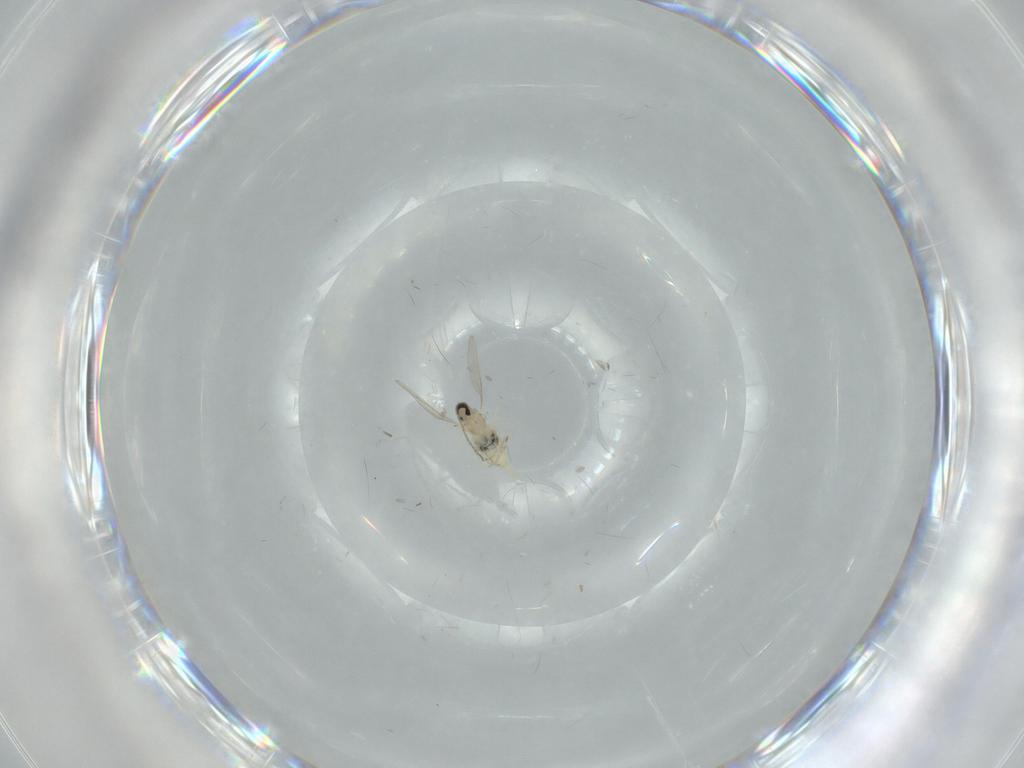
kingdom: Animalia
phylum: Arthropoda
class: Insecta
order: Diptera
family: Cecidomyiidae
